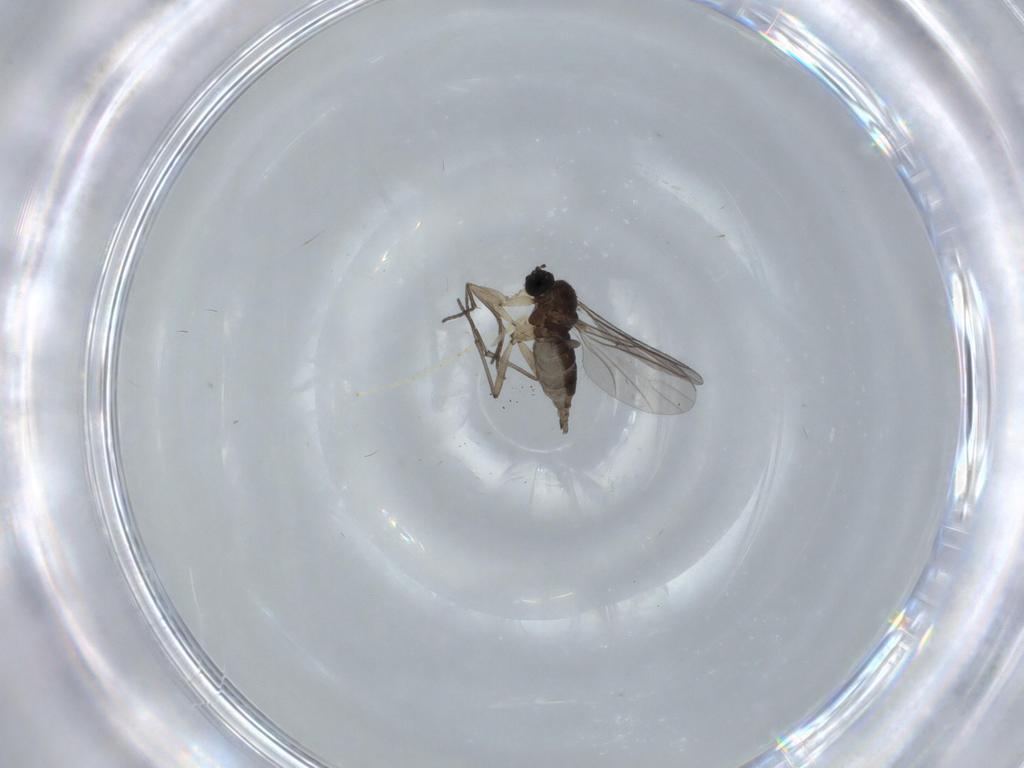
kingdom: Animalia
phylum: Arthropoda
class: Insecta
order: Diptera
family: Sciaridae
